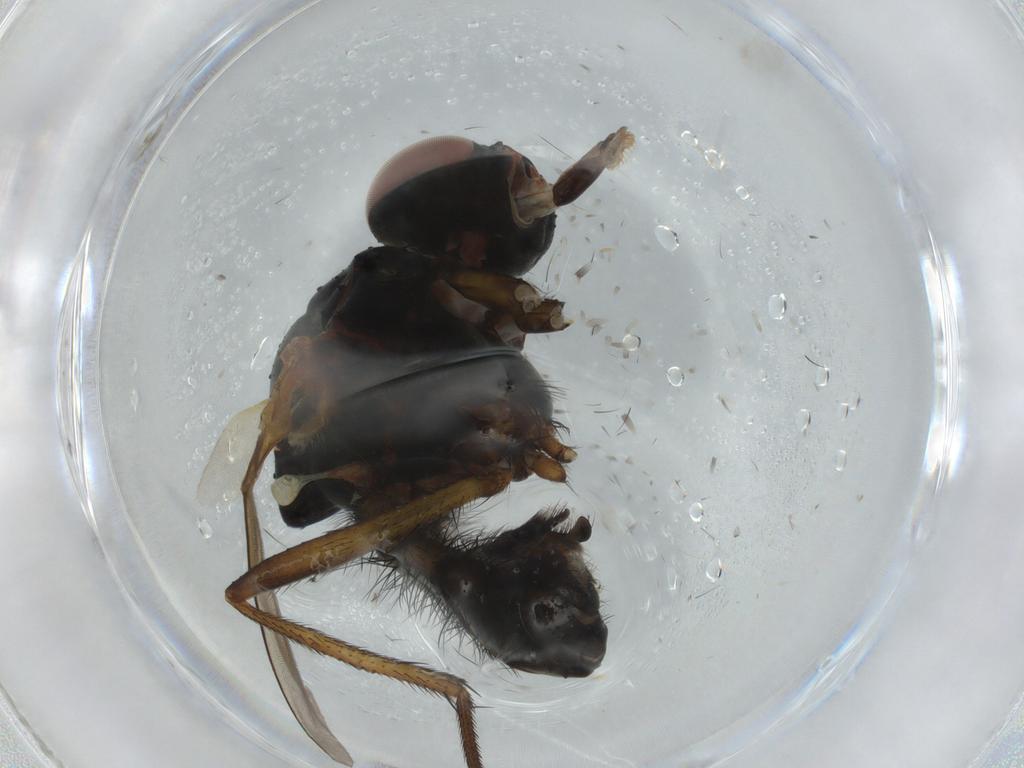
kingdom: Animalia
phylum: Arthropoda
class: Insecta
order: Diptera
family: Anthomyiidae
